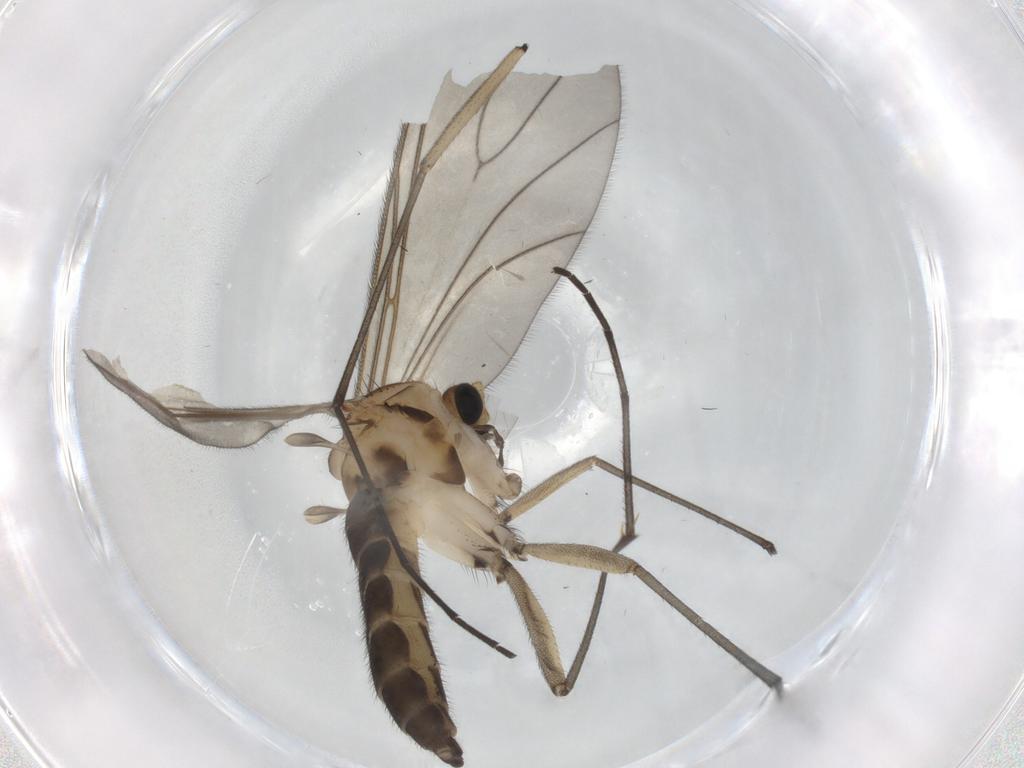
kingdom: Animalia
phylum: Arthropoda
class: Insecta
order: Diptera
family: Sciaridae
